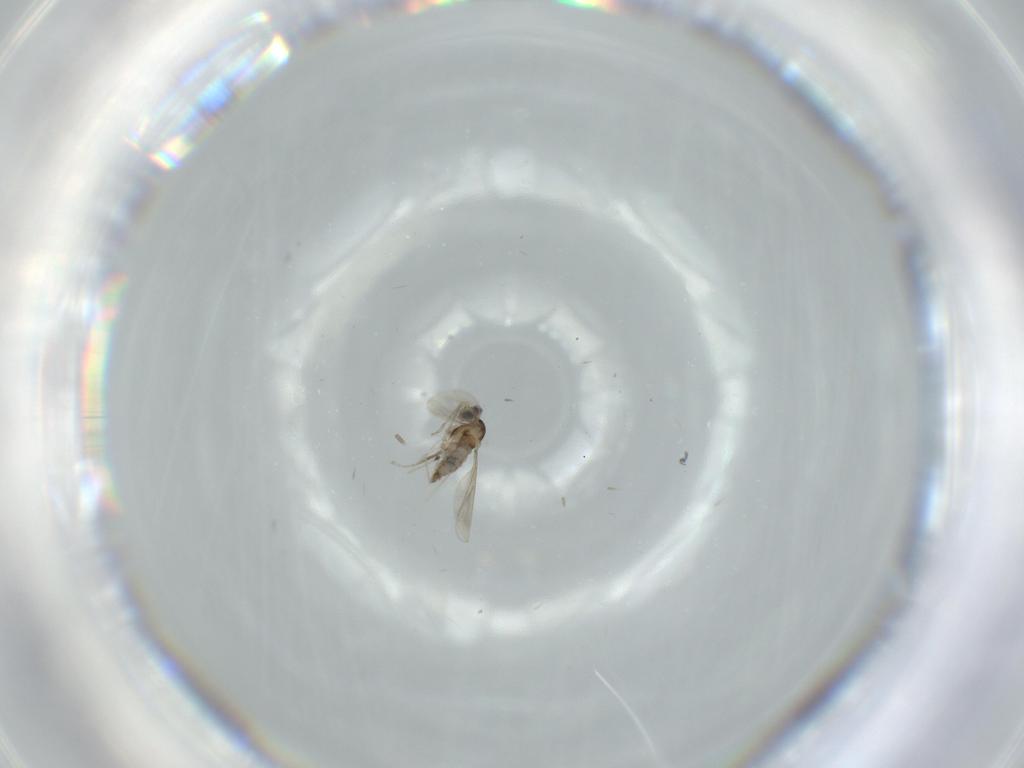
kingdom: Animalia
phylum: Arthropoda
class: Insecta
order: Diptera
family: Cecidomyiidae
